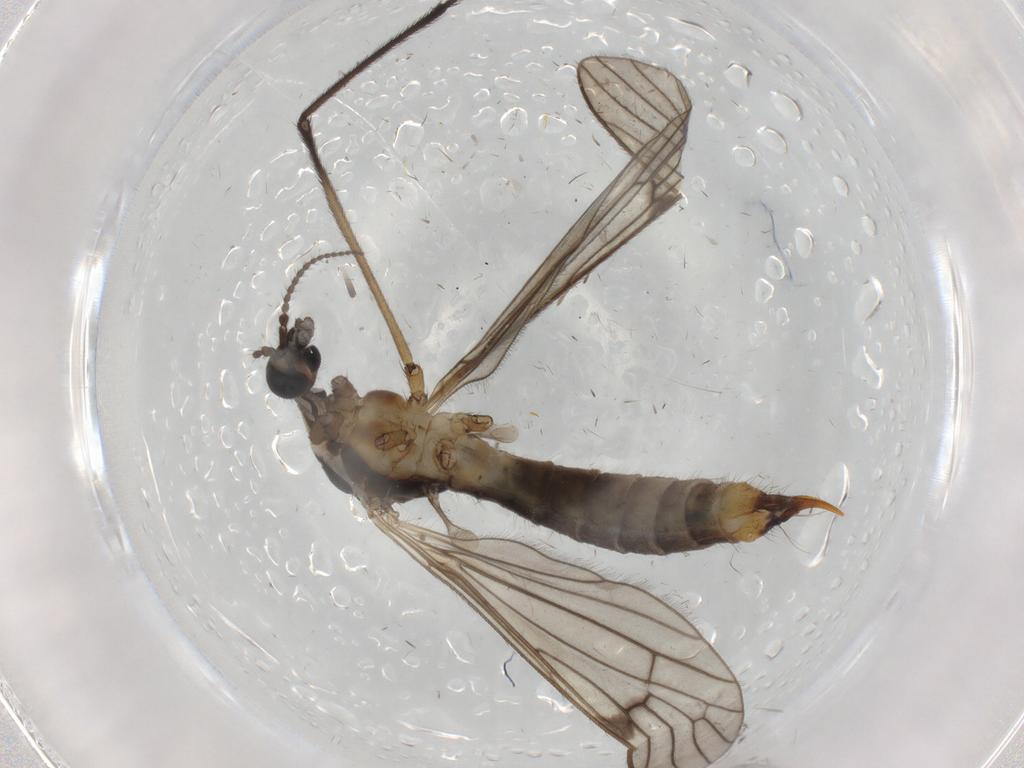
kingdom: Animalia
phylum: Arthropoda
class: Insecta
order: Diptera
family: Limoniidae
